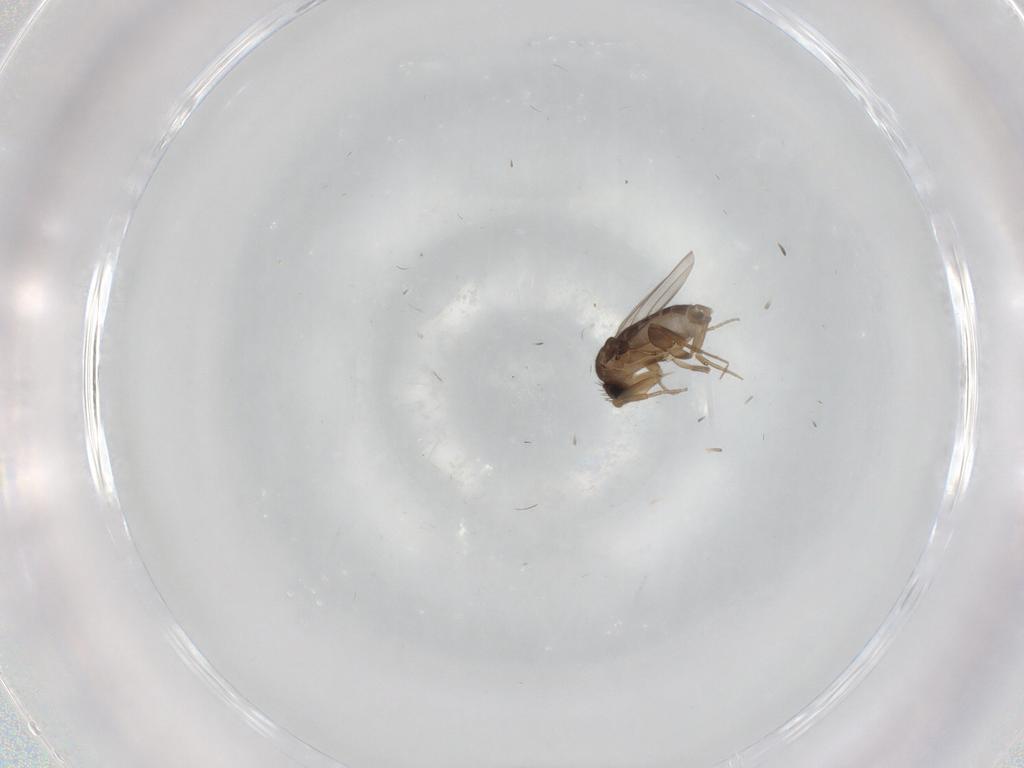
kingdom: Animalia
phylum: Arthropoda
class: Insecta
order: Diptera
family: Phoridae
